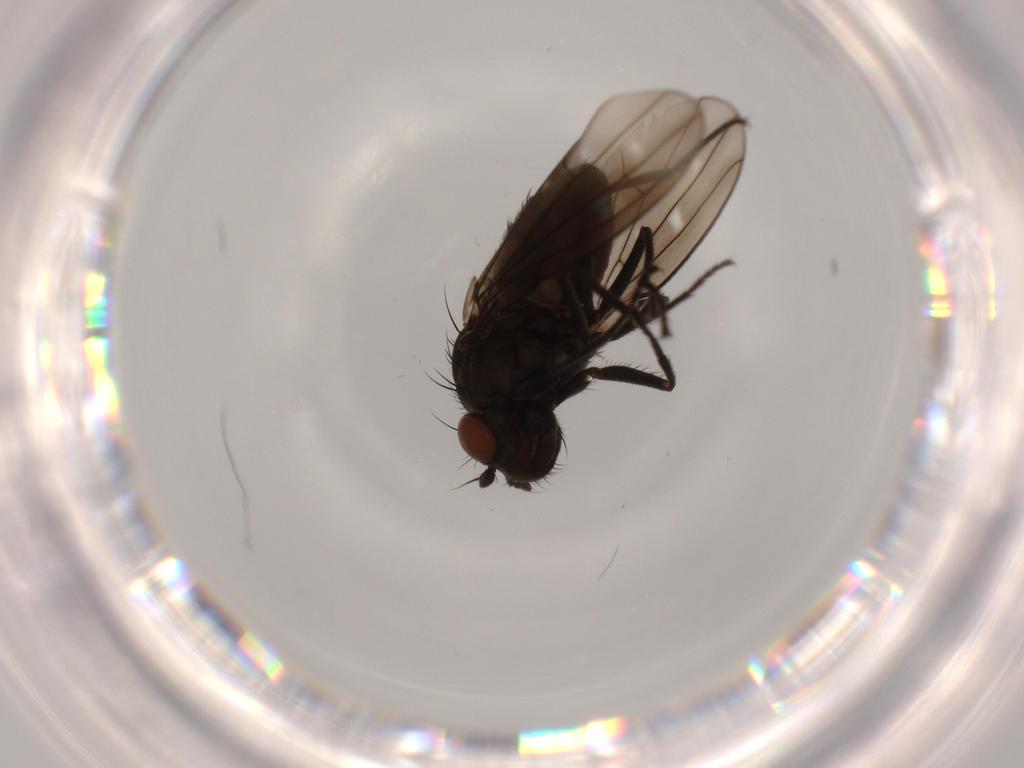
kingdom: Animalia
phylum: Arthropoda
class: Insecta
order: Diptera
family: Ephydridae
